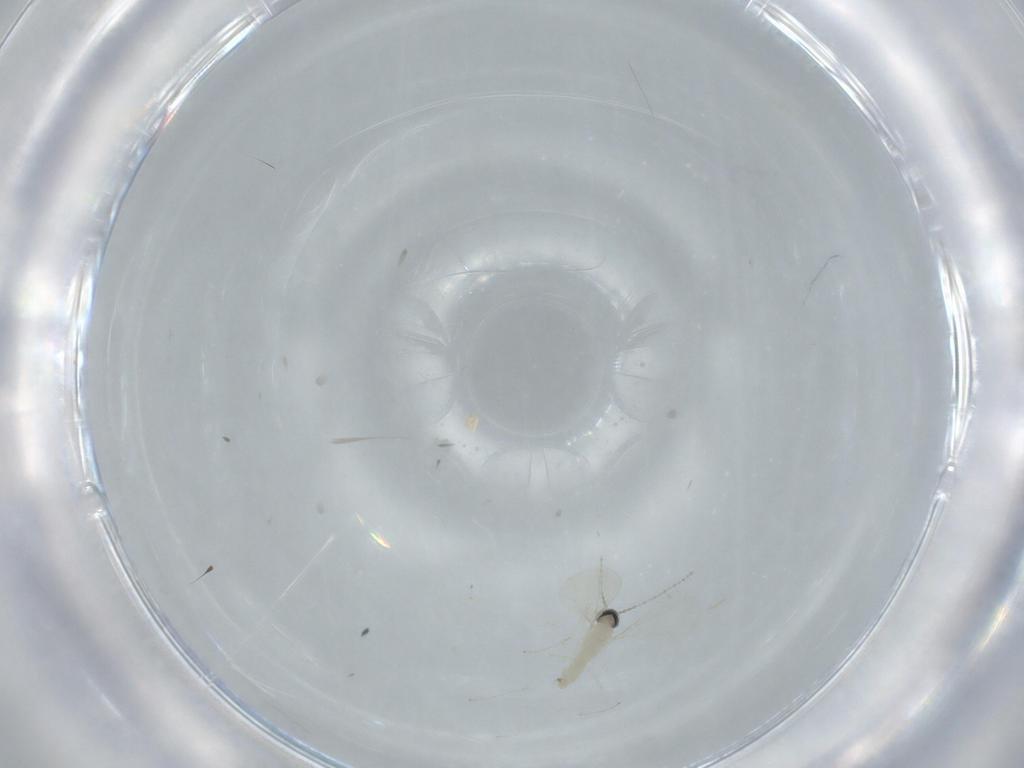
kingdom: Animalia
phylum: Arthropoda
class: Insecta
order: Diptera
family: Cecidomyiidae
